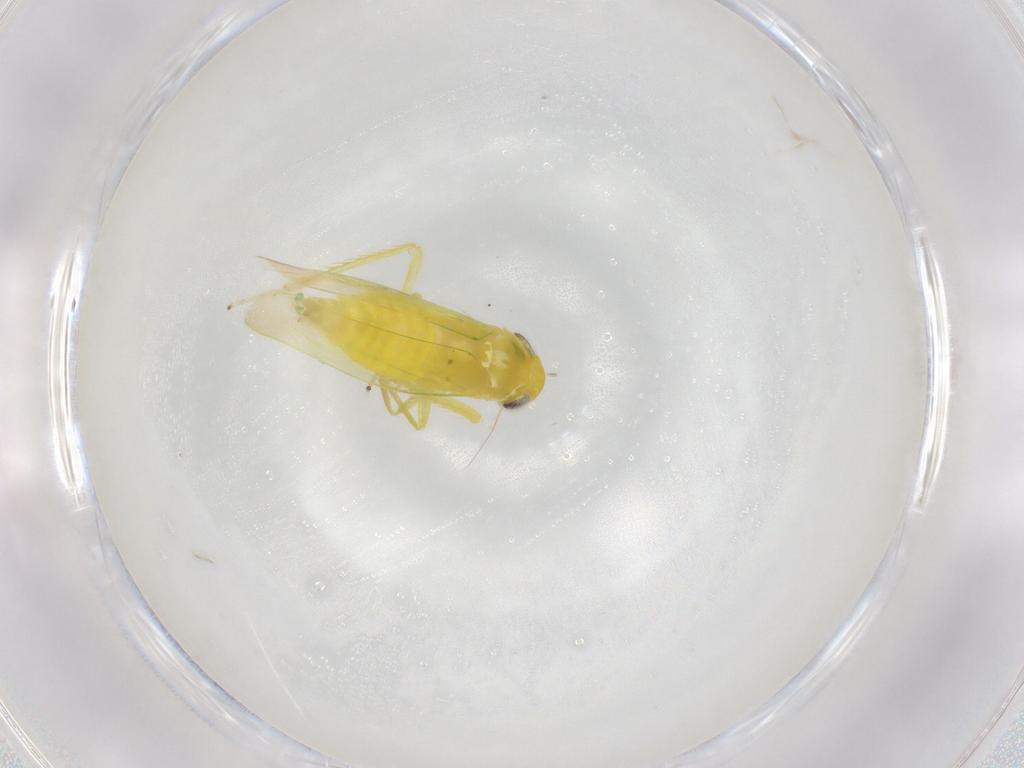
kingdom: Animalia
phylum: Arthropoda
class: Insecta
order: Hemiptera
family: Cicadellidae
